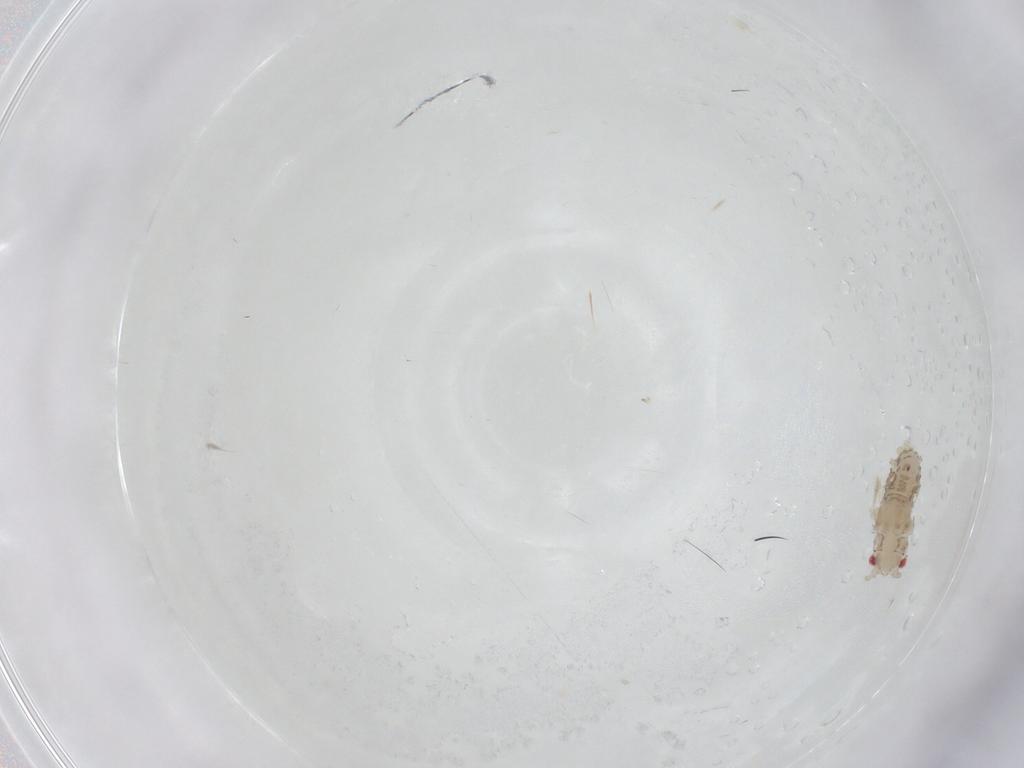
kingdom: Animalia
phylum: Arthropoda
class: Insecta
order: Hemiptera
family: Aphididae
